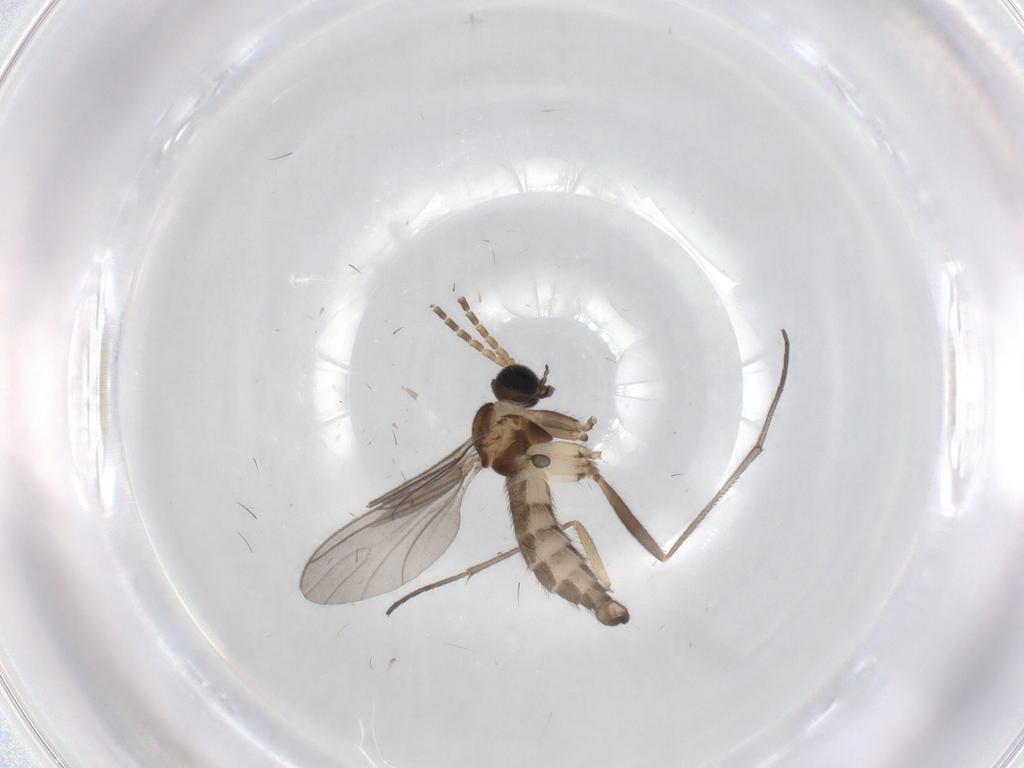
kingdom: Animalia
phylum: Arthropoda
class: Insecta
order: Diptera
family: Sciaridae
